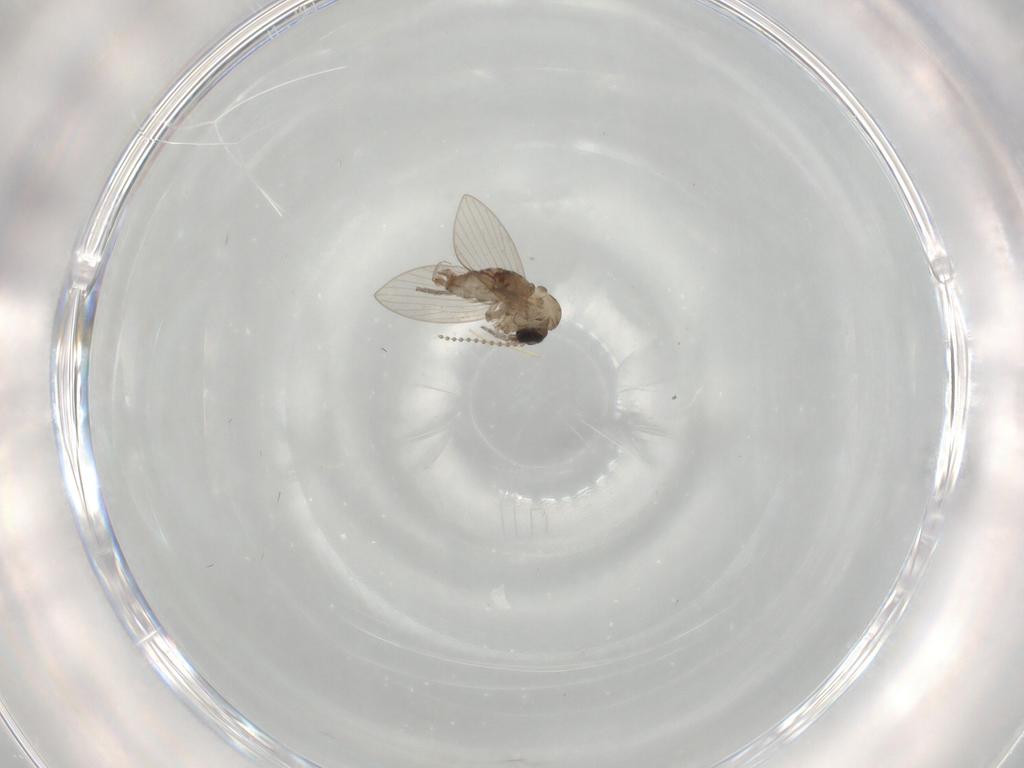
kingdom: Animalia
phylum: Arthropoda
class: Insecta
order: Diptera
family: Psychodidae
